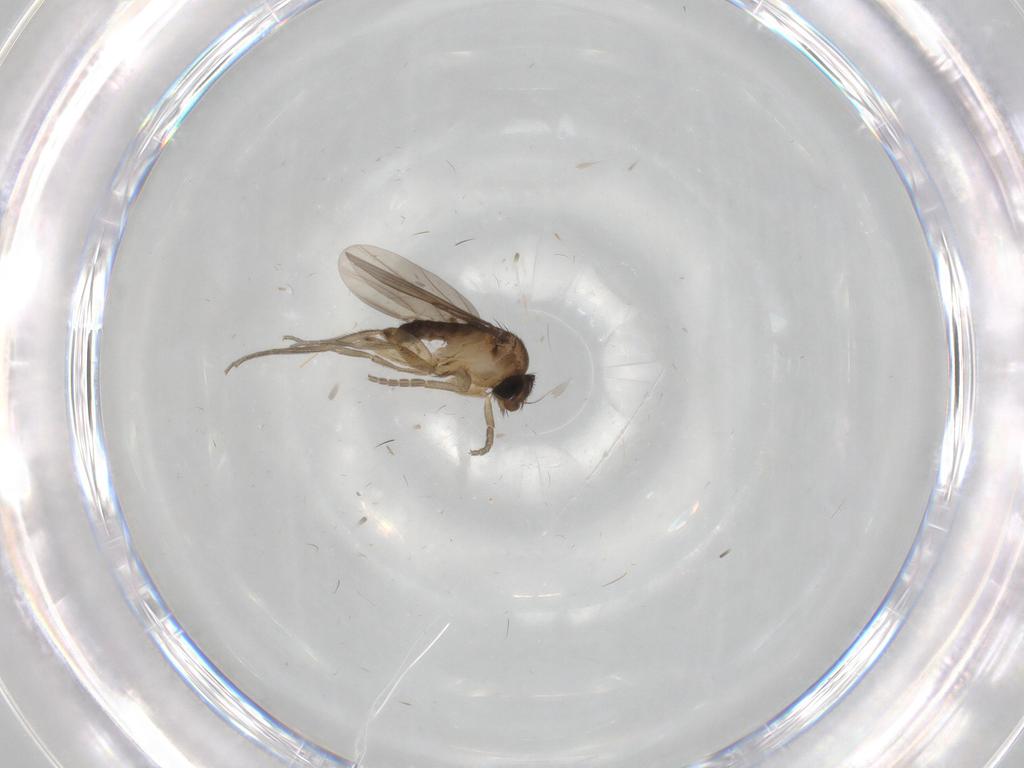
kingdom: Animalia
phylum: Arthropoda
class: Insecta
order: Diptera
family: Phoridae
